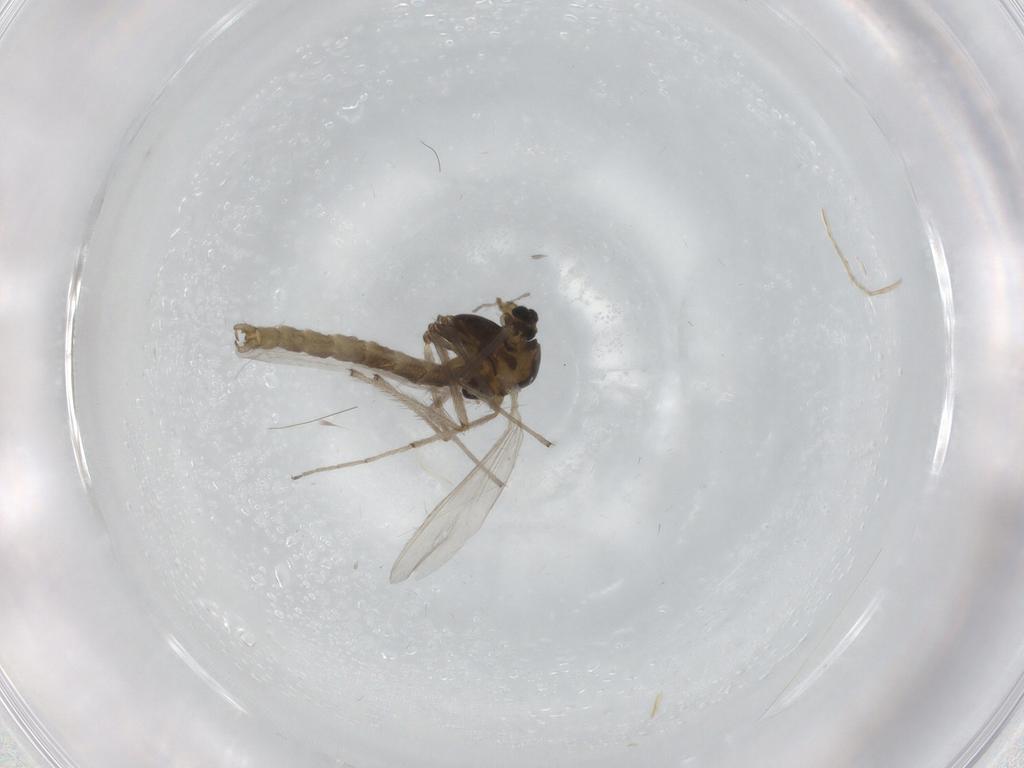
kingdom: Animalia
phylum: Arthropoda
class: Insecta
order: Diptera
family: Chironomidae
